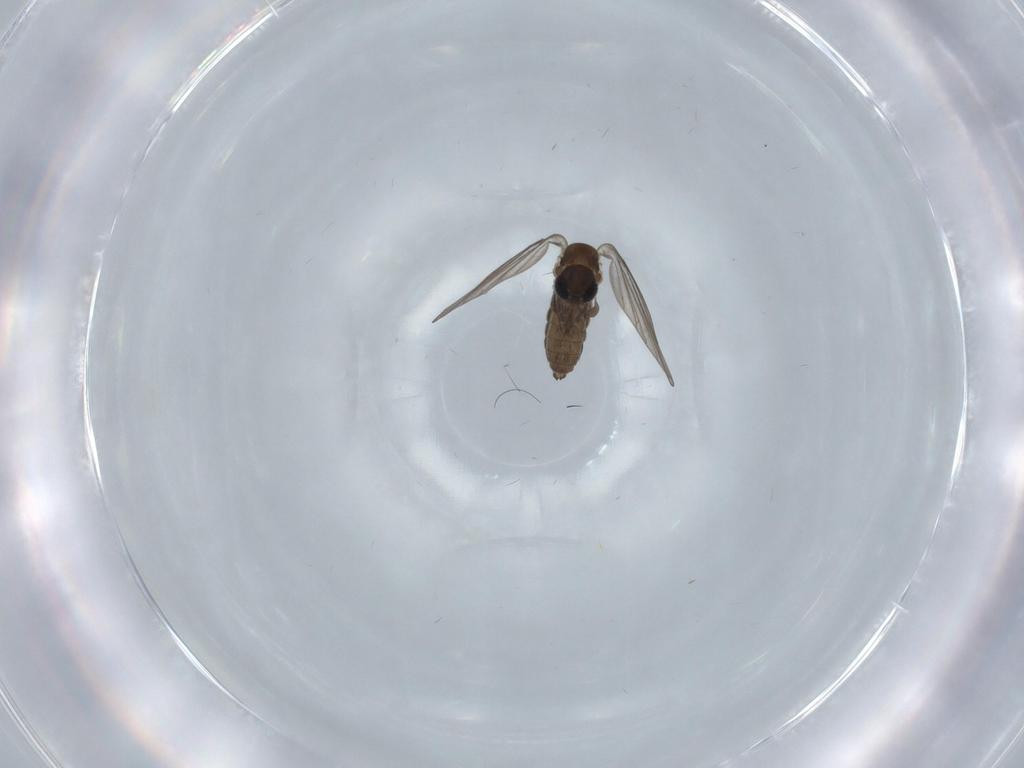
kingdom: Animalia
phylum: Arthropoda
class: Insecta
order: Diptera
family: Psychodidae
